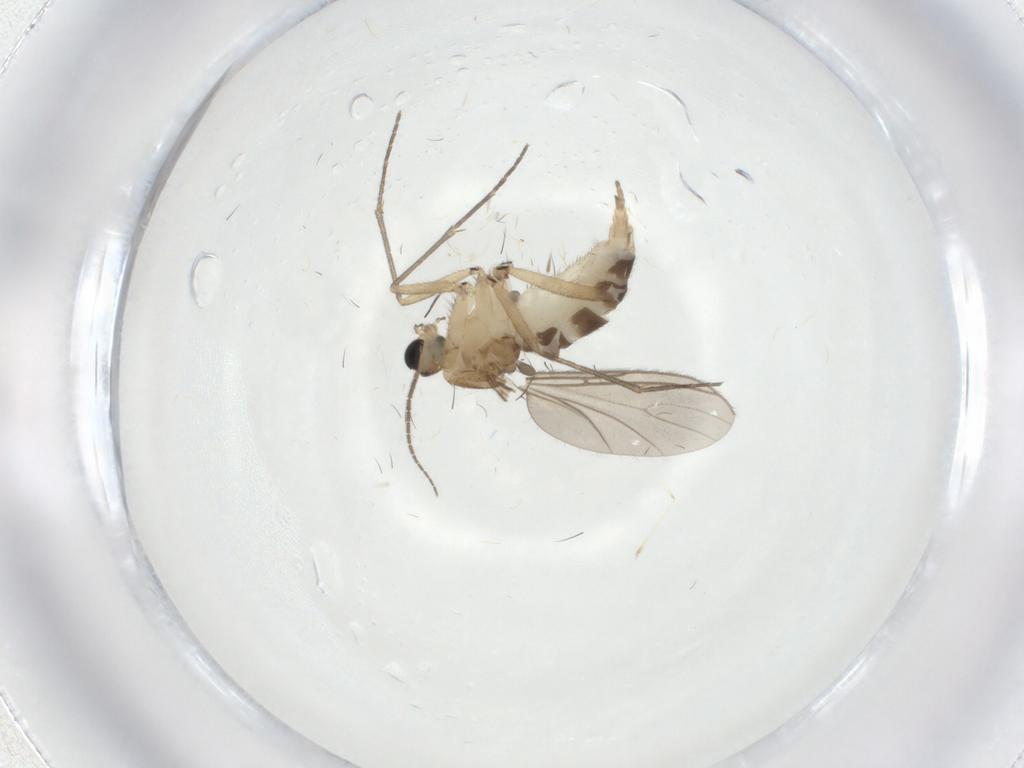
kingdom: Animalia
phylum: Arthropoda
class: Insecta
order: Diptera
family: Sciaridae
